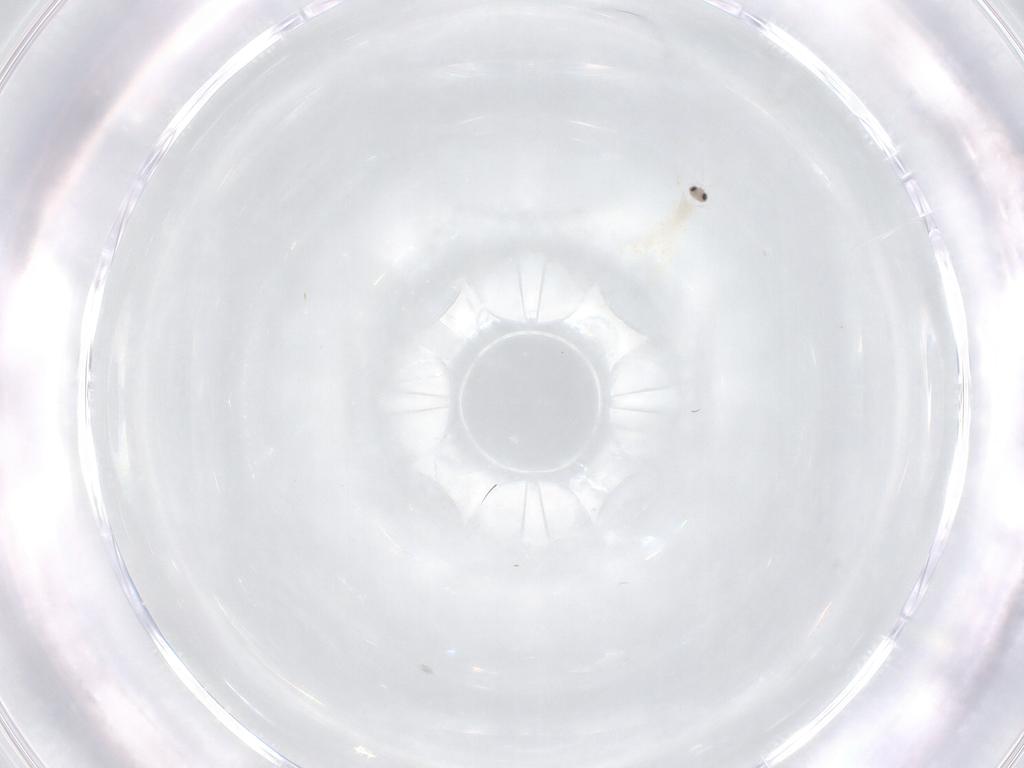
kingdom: Animalia
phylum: Arthropoda
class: Insecta
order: Diptera
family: Cecidomyiidae
